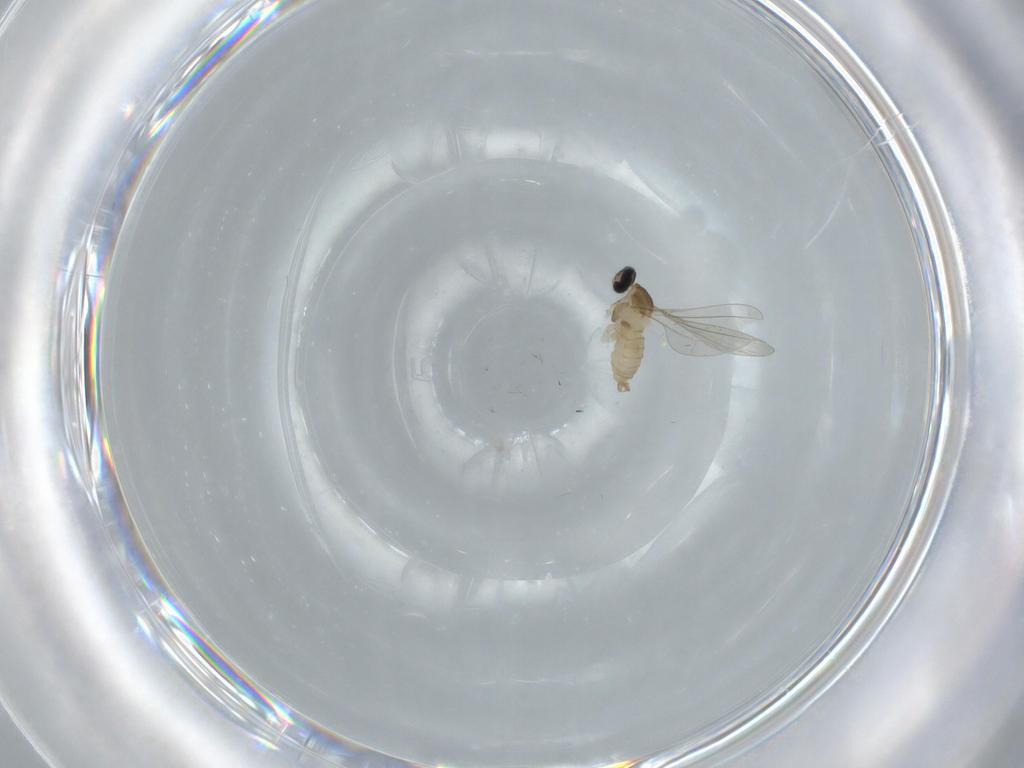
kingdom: Animalia
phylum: Arthropoda
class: Insecta
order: Diptera
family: Cecidomyiidae
